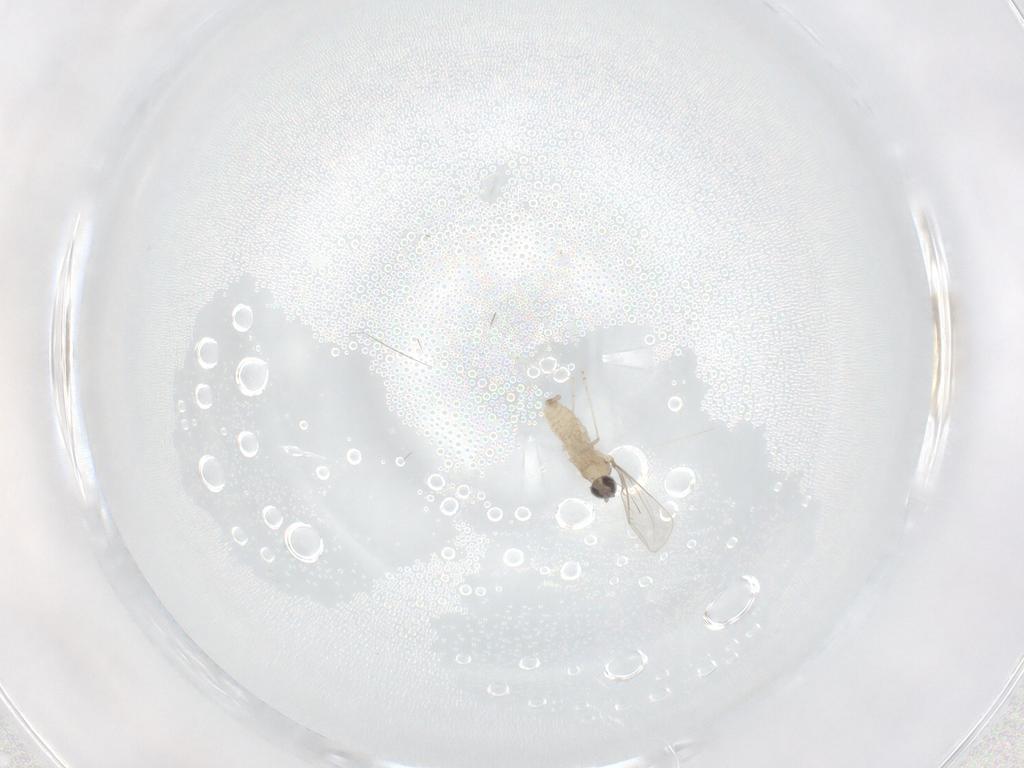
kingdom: Animalia
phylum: Arthropoda
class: Insecta
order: Diptera
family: Cecidomyiidae
